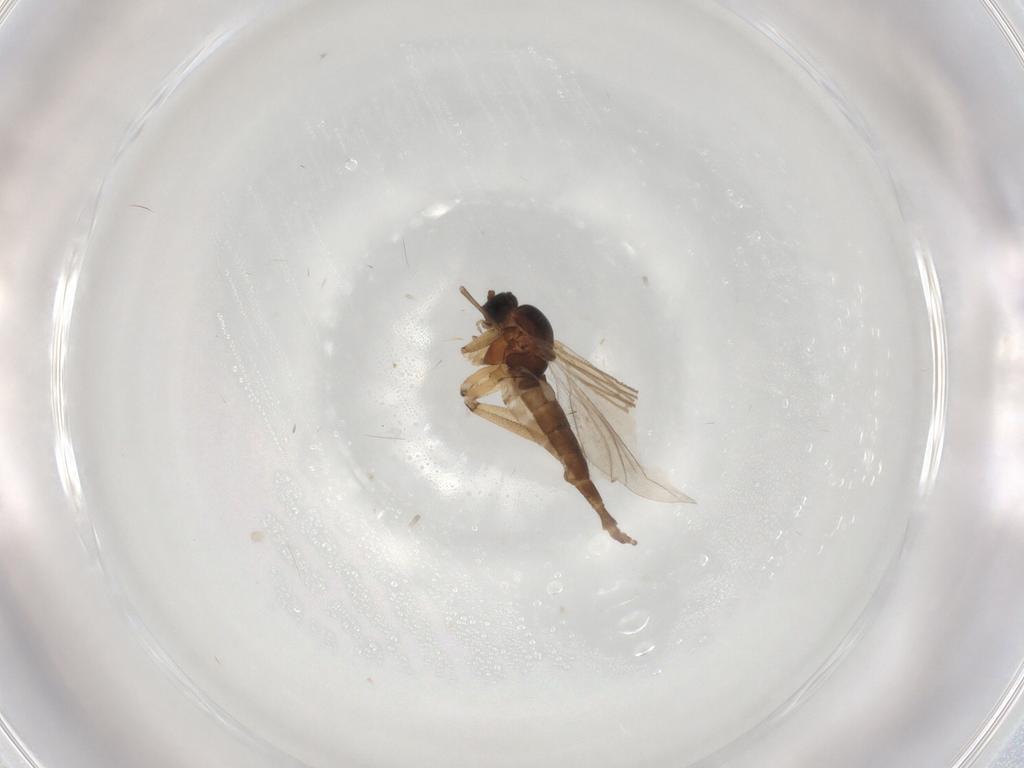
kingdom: Animalia
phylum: Arthropoda
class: Insecta
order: Diptera
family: Sciaridae
